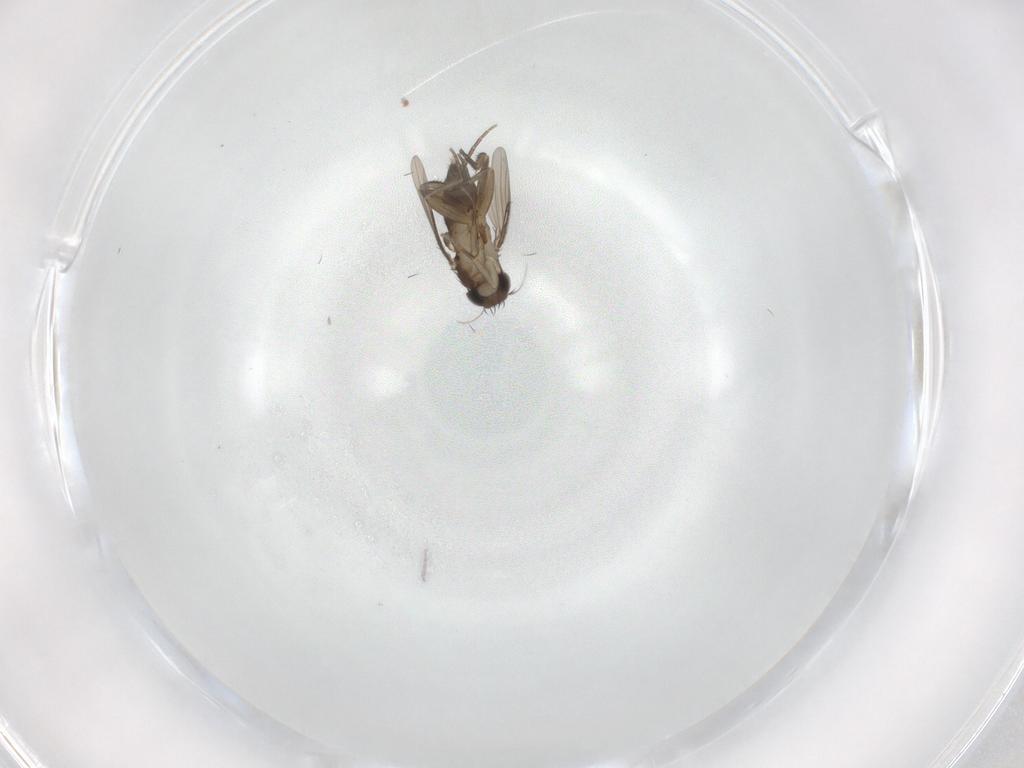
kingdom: Animalia
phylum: Arthropoda
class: Insecta
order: Diptera
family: Phoridae
